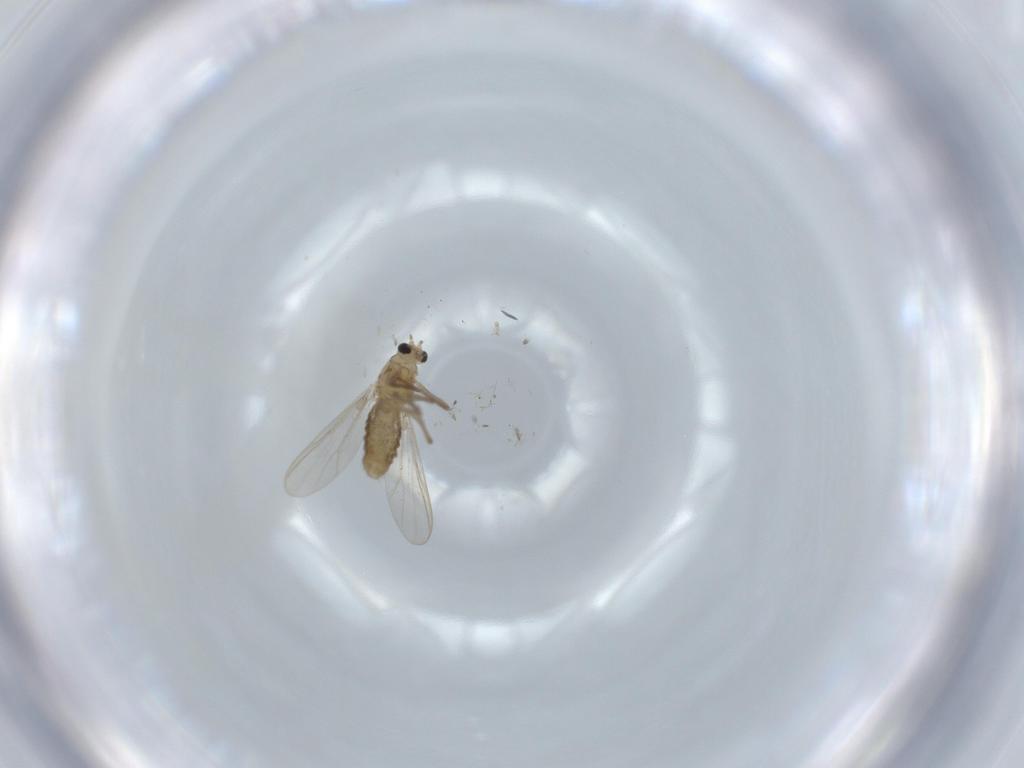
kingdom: Animalia
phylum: Arthropoda
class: Insecta
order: Diptera
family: Chironomidae
